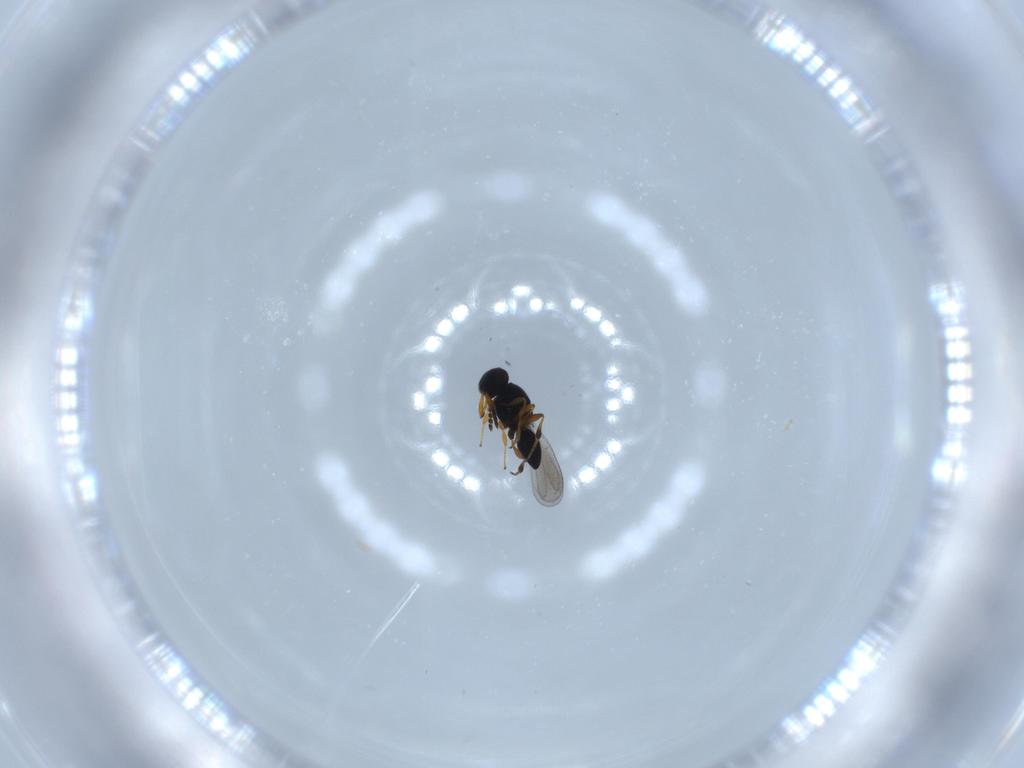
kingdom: Animalia
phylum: Arthropoda
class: Insecta
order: Hymenoptera
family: Platygastridae
